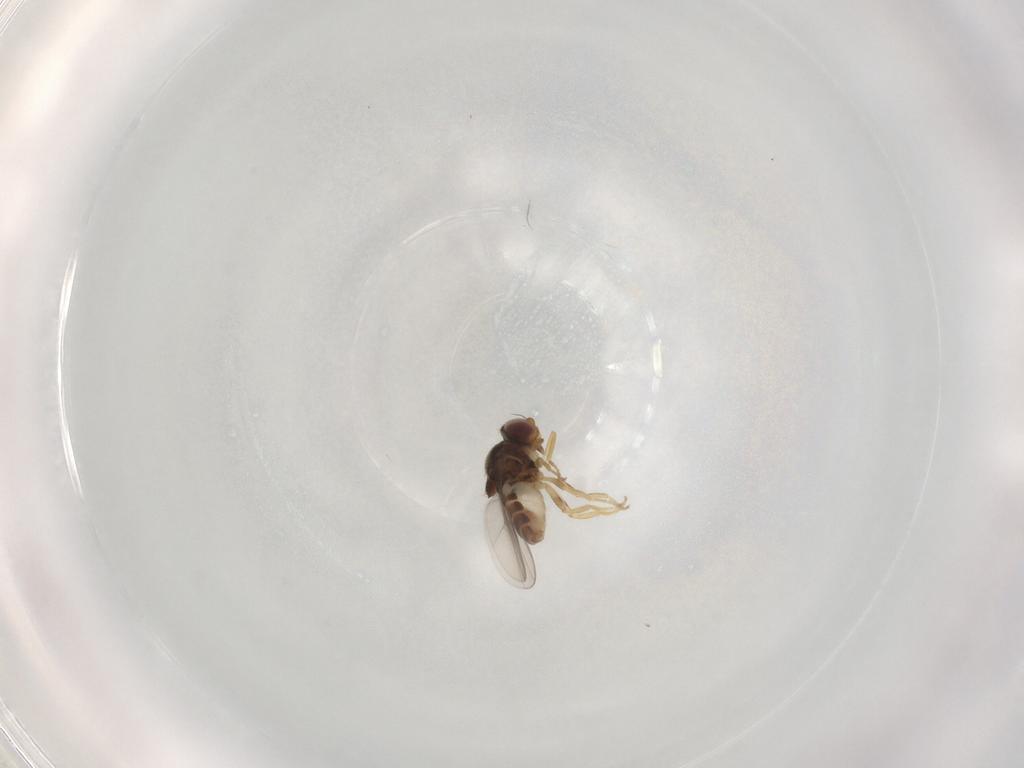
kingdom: Animalia
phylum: Arthropoda
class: Insecta
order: Diptera
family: Chloropidae
